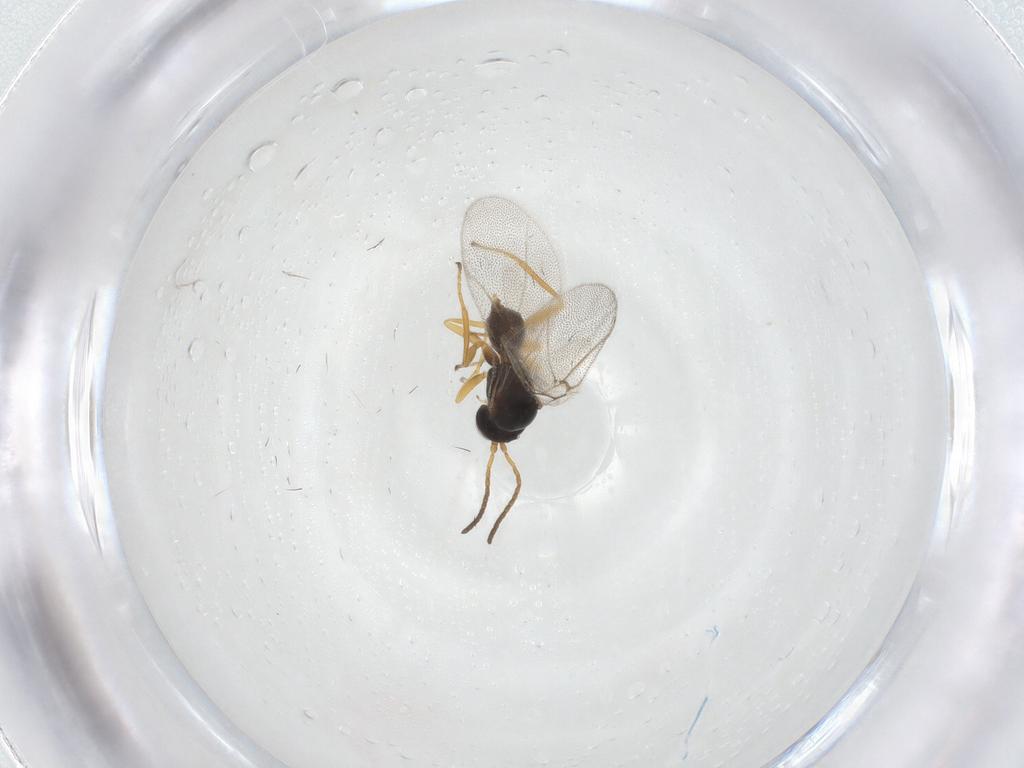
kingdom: Animalia
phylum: Arthropoda
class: Insecta
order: Hymenoptera
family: Cynipidae
